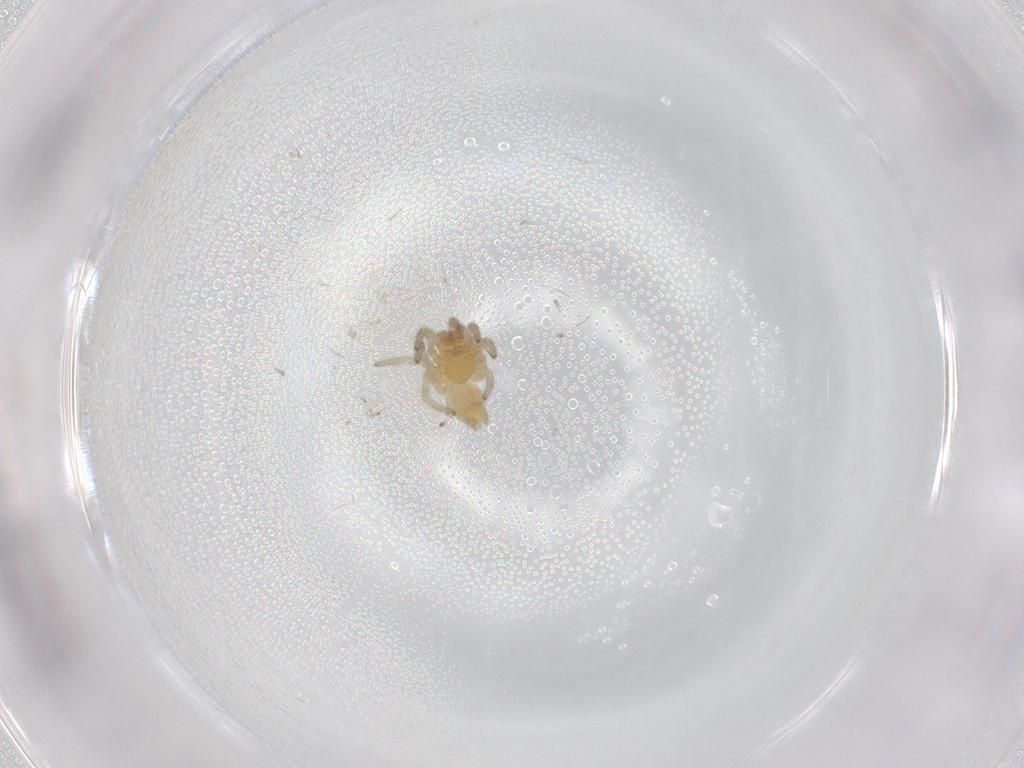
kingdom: Animalia
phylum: Arthropoda
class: Arachnida
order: Araneae
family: Dictynidae
